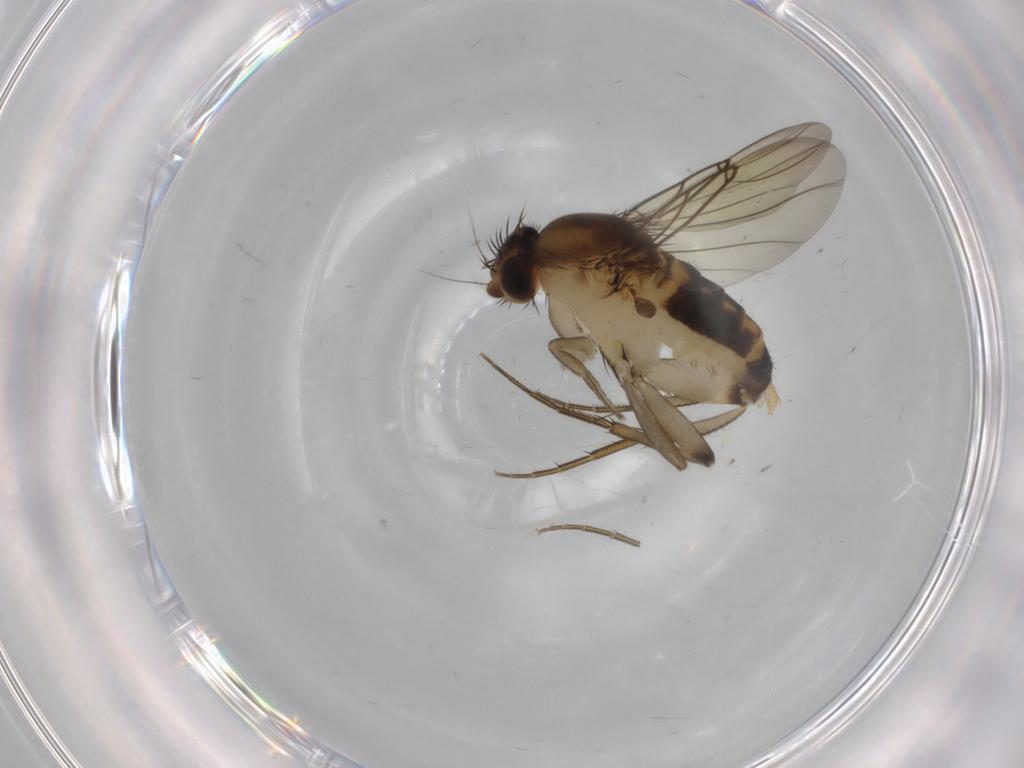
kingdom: Animalia
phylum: Arthropoda
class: Insecta
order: Diptera
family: Phoridae
